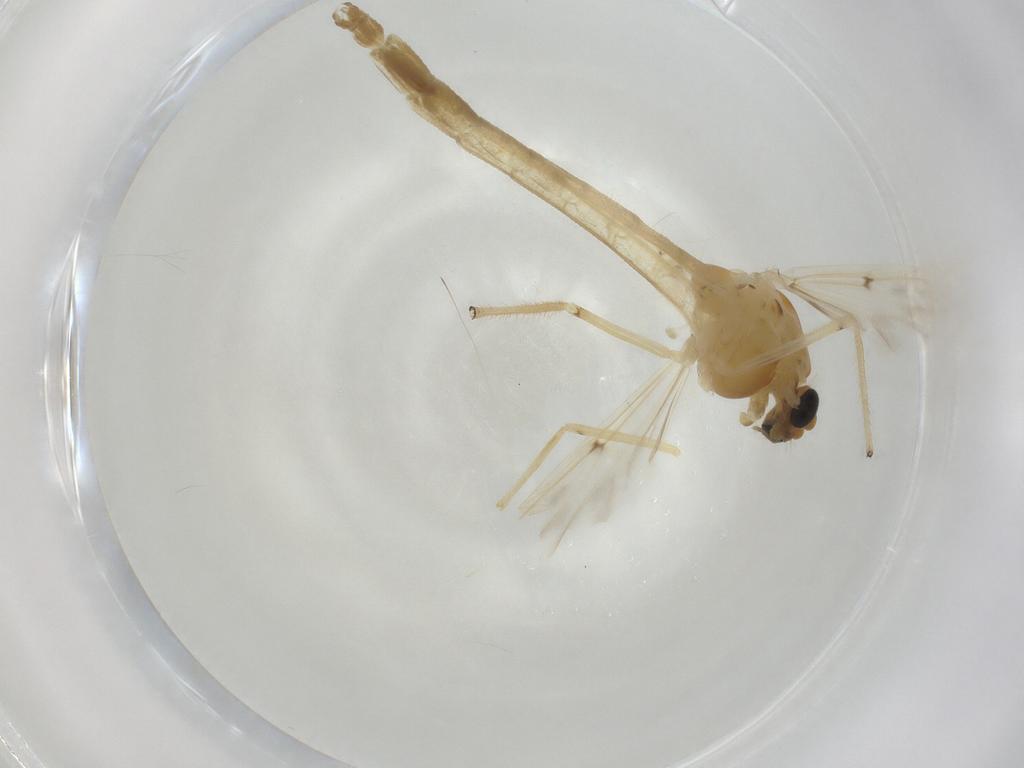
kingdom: Animalia
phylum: Arthropoda
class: Insecta
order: Diptera
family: Chironomidae
